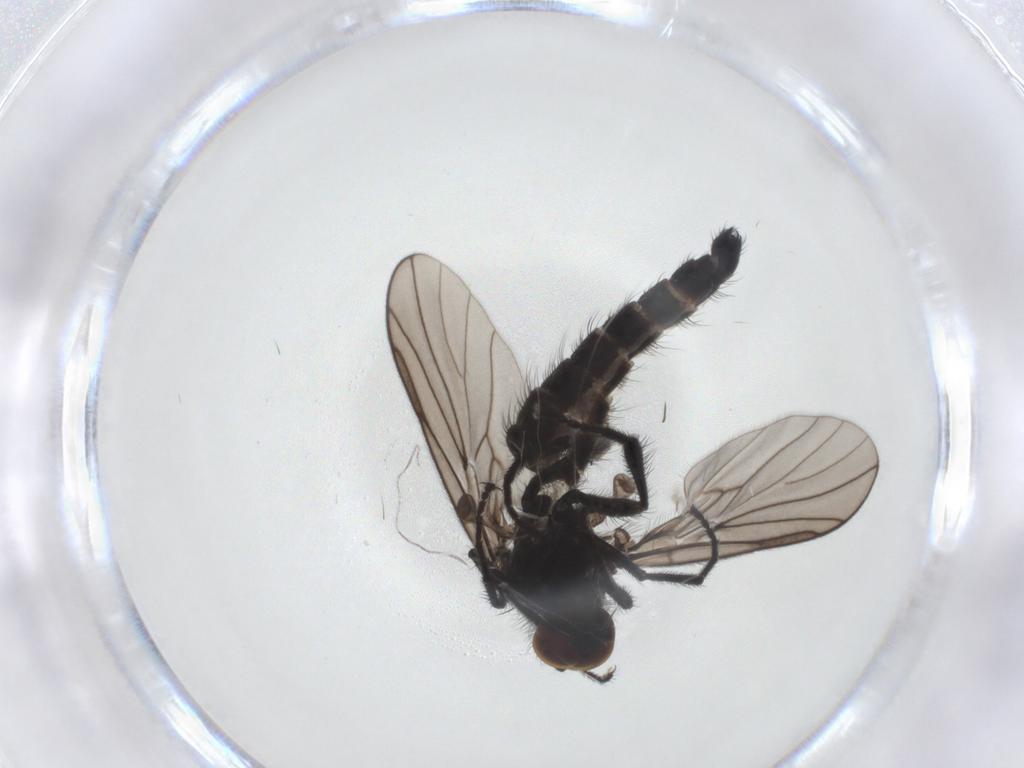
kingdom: Animalia
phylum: Arthropoda
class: Insecta
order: Diptera
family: Hybotidae
